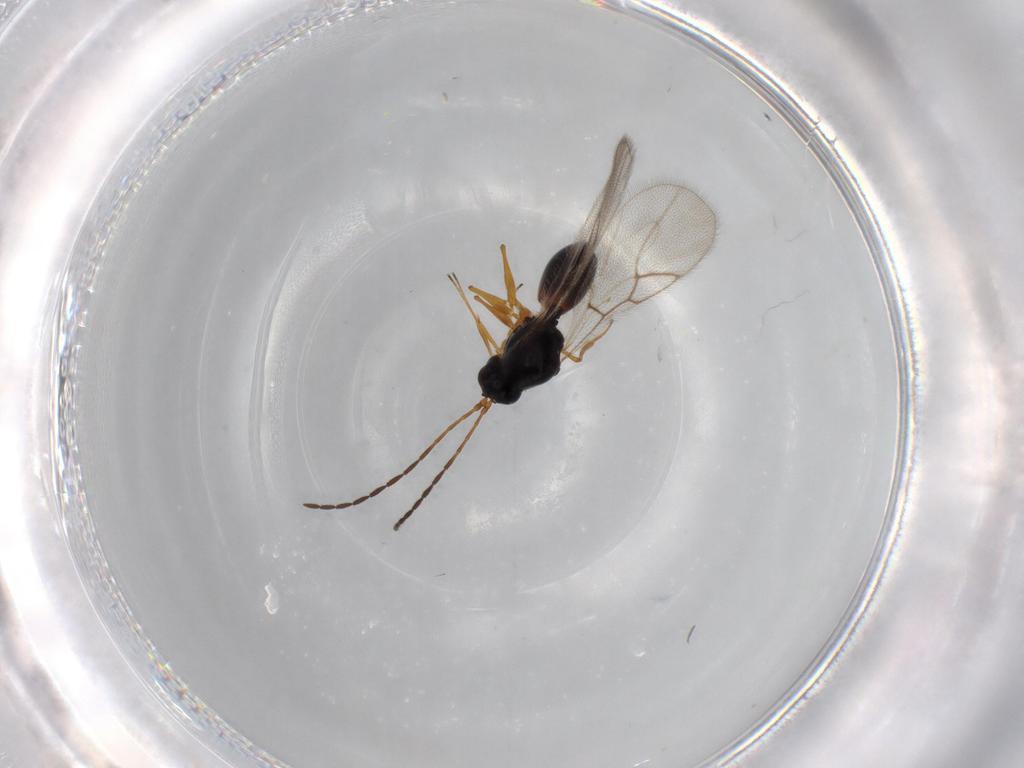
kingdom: Animalia
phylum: Arthropoda
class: Insecta
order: Hymenoptera
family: Figitidae
